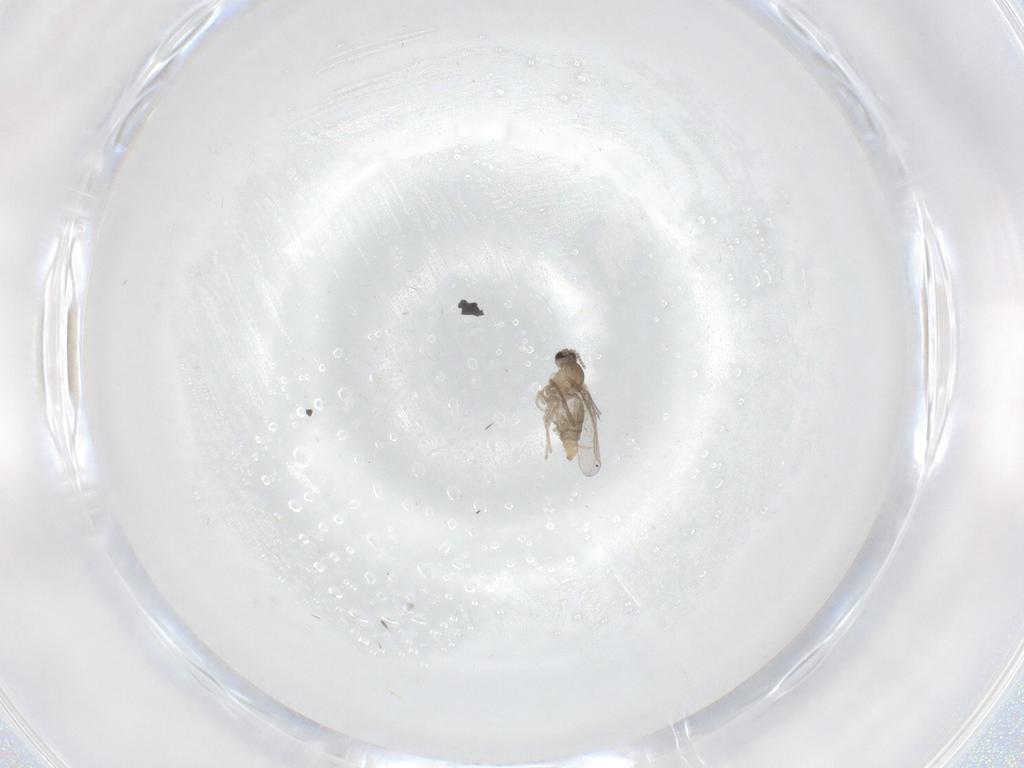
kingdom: Animalia
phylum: Arthropoda
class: Insecta
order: Diptera
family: Cecidomyiidae
